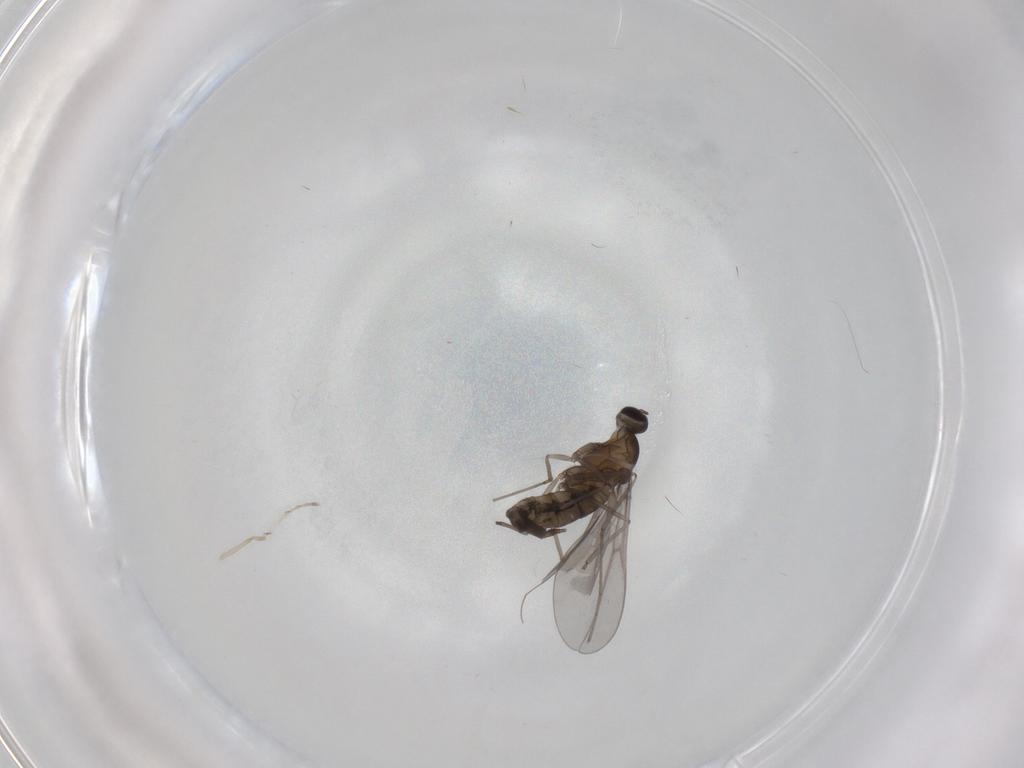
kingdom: Animalia
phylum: Arthropoda
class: Insecta
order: Diptera
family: Cecidomyiidae
